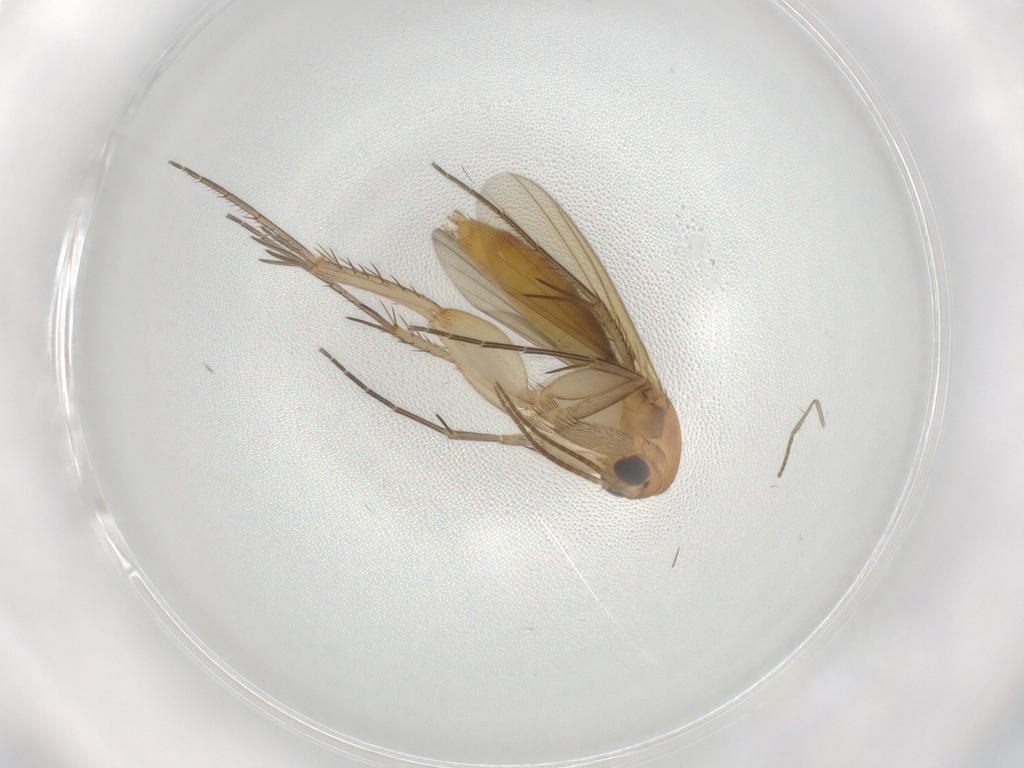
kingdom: Animalia
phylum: Arthropoda
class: Insecta
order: Diptera
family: Mycetophilidae
